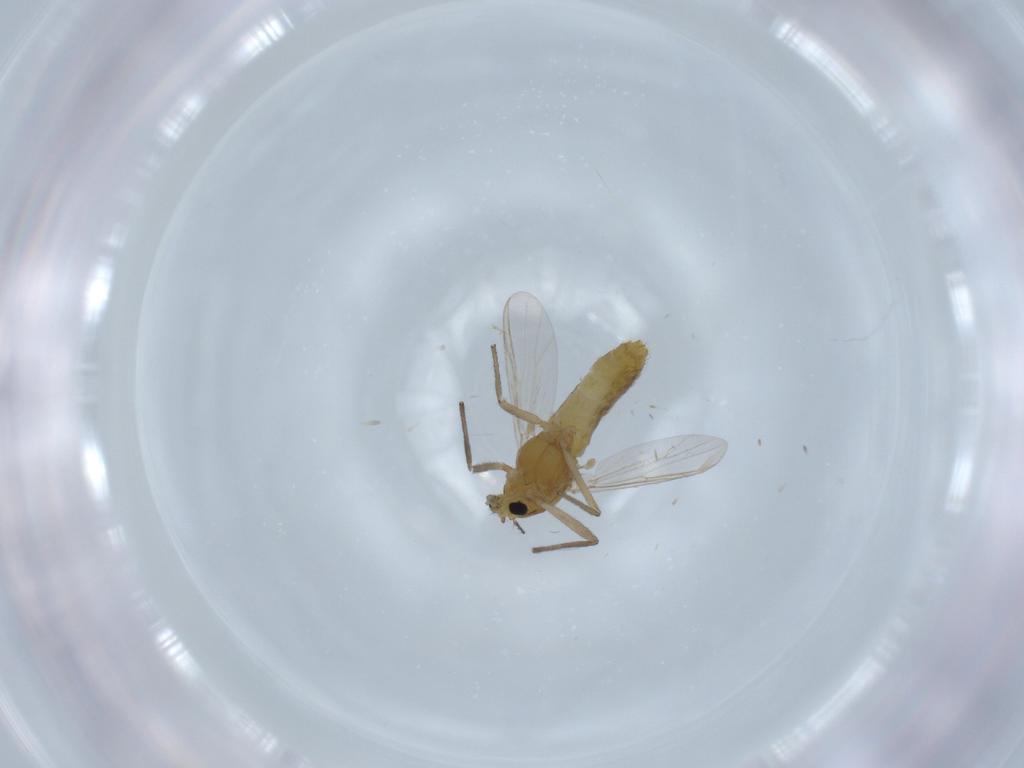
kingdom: Animalia
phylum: Arthropoda
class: Insecta
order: Diptera
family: Chironomidae
